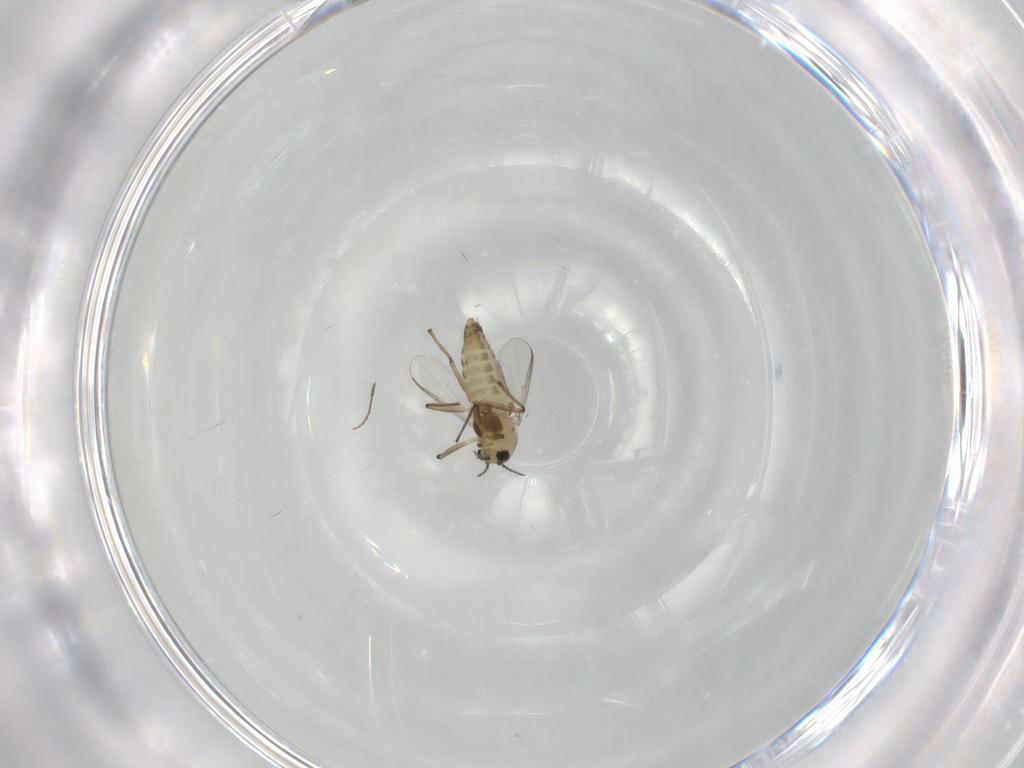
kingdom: Animalia
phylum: Arthropoda
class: Insecta
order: Diptera
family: Chironomidae
